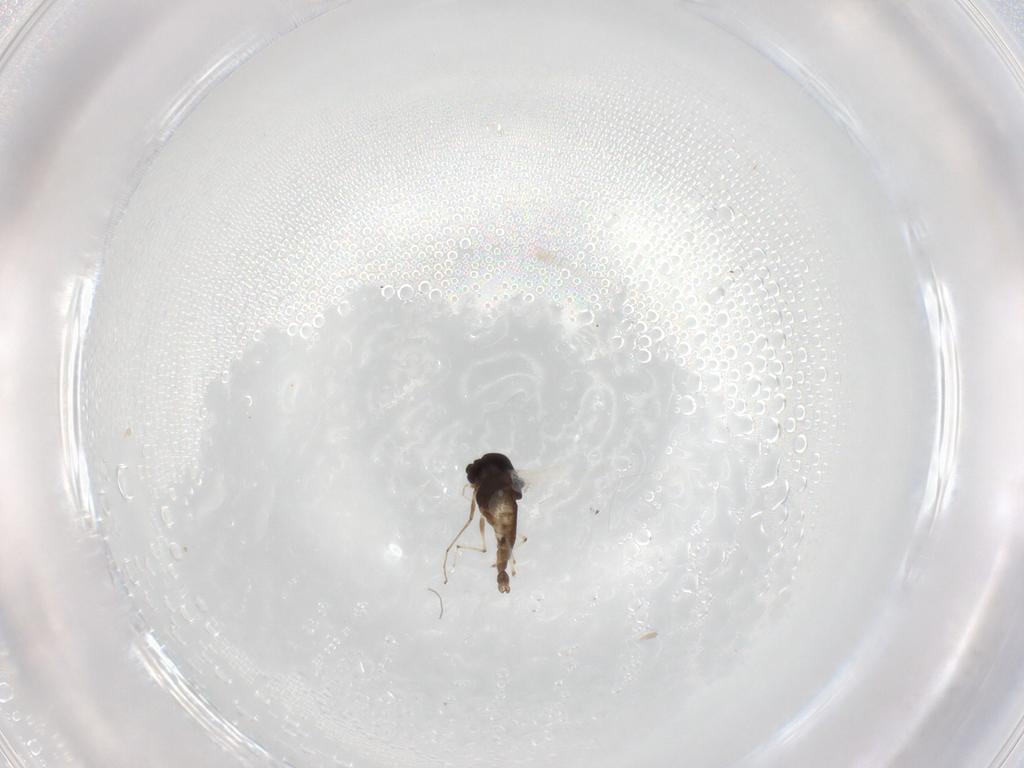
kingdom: Animalia
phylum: Arthropoda
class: Insecta
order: Diptera
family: Chironomidae
